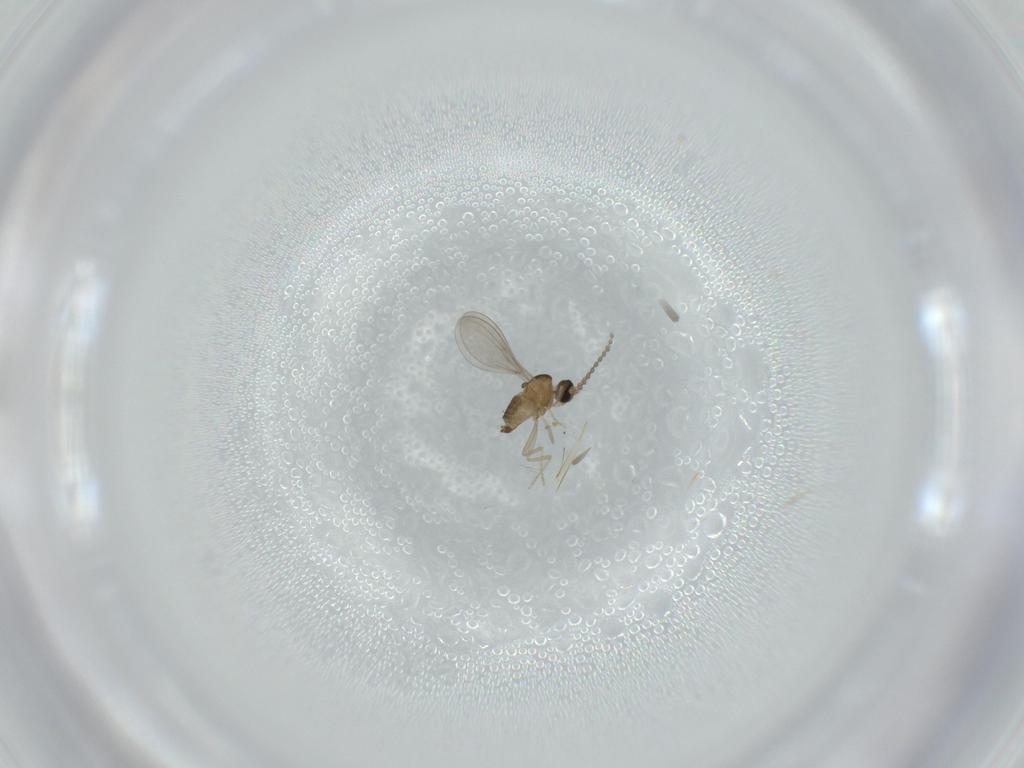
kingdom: Animalia
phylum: Arthropoda
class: Insecta
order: Diptera
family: Cecidomyiidae
